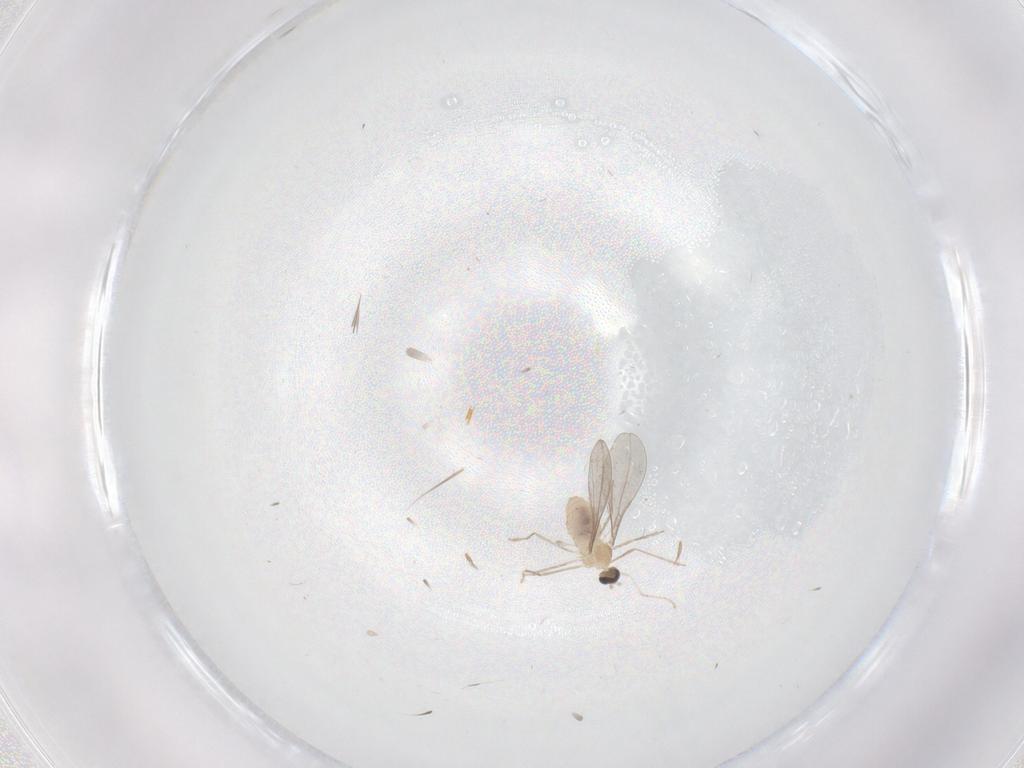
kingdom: Animalia
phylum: Arthropoda
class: Insecta
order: Diptera
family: Cecidomyiidae
